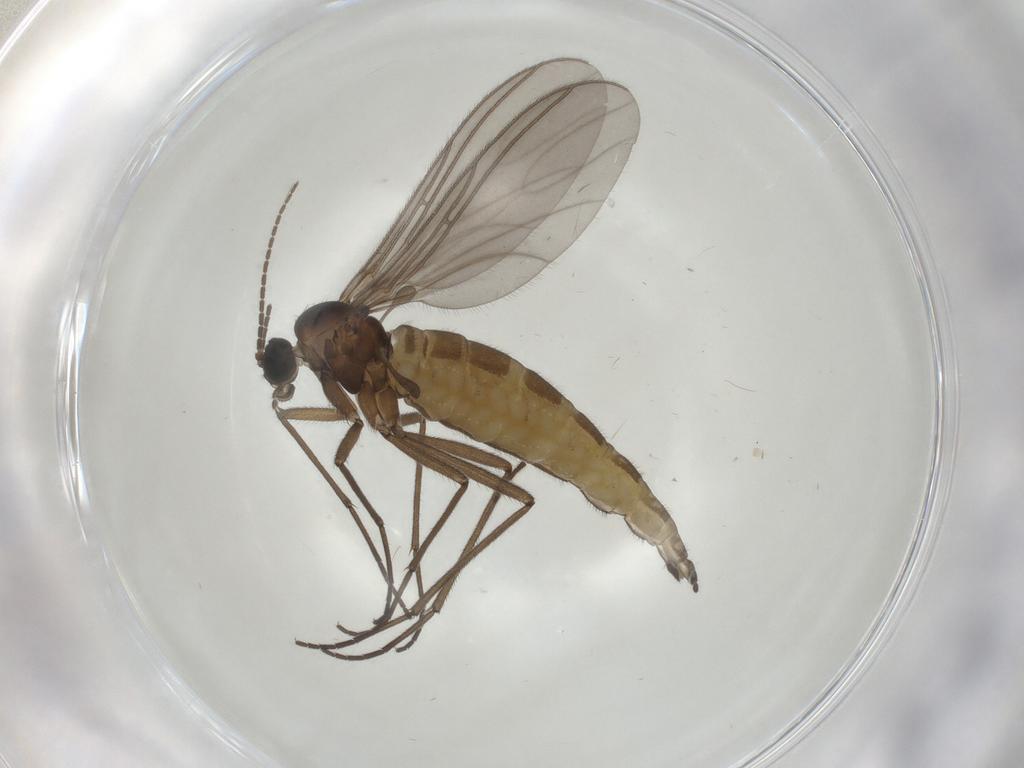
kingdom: Animalia
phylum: Arthropoda
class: Insecta
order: Diptera
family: Sciaridae
